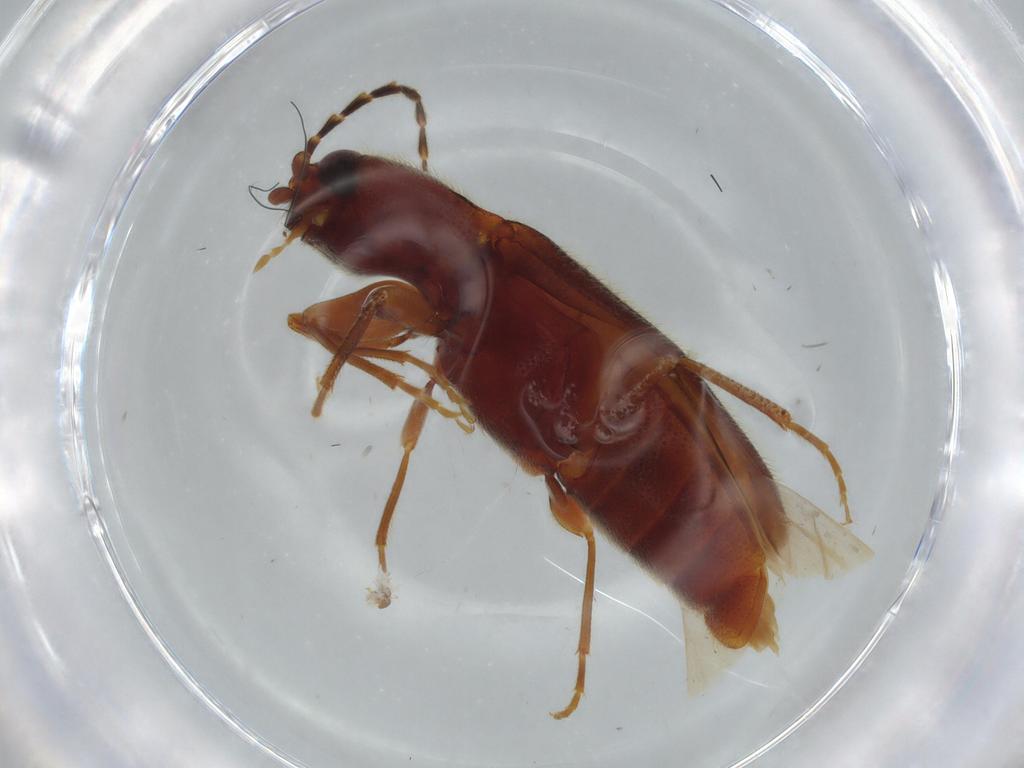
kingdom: Animalia
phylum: Arthropoda
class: Insecta
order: Coleoptera
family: Elateridae
